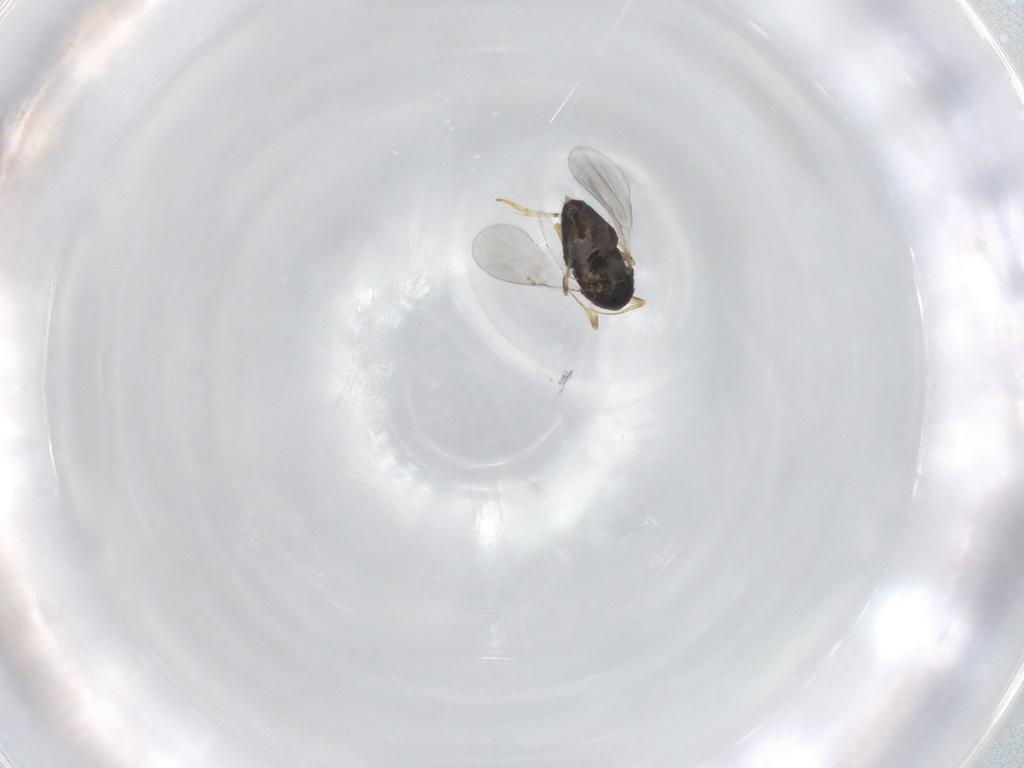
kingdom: Animalia
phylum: Arthropoda
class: Insecta
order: Hymenoptera
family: Encyrtidae
